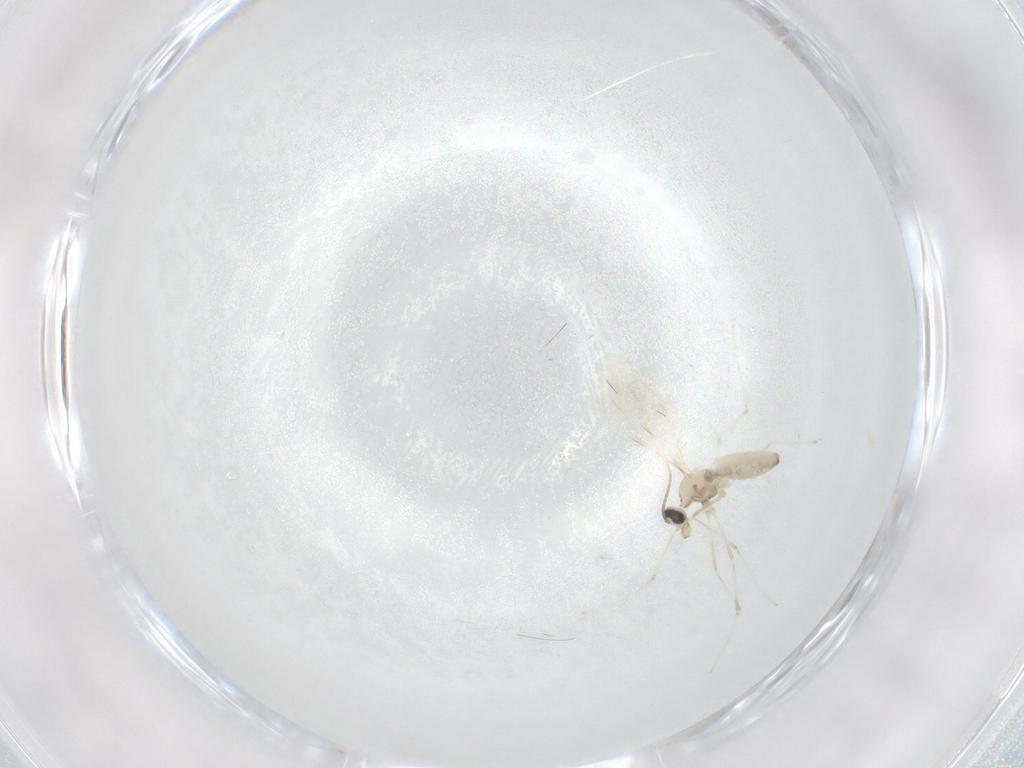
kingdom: Animalia
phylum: Arthropoda
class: Insecta
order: Diptera
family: Cecidomyiidae
